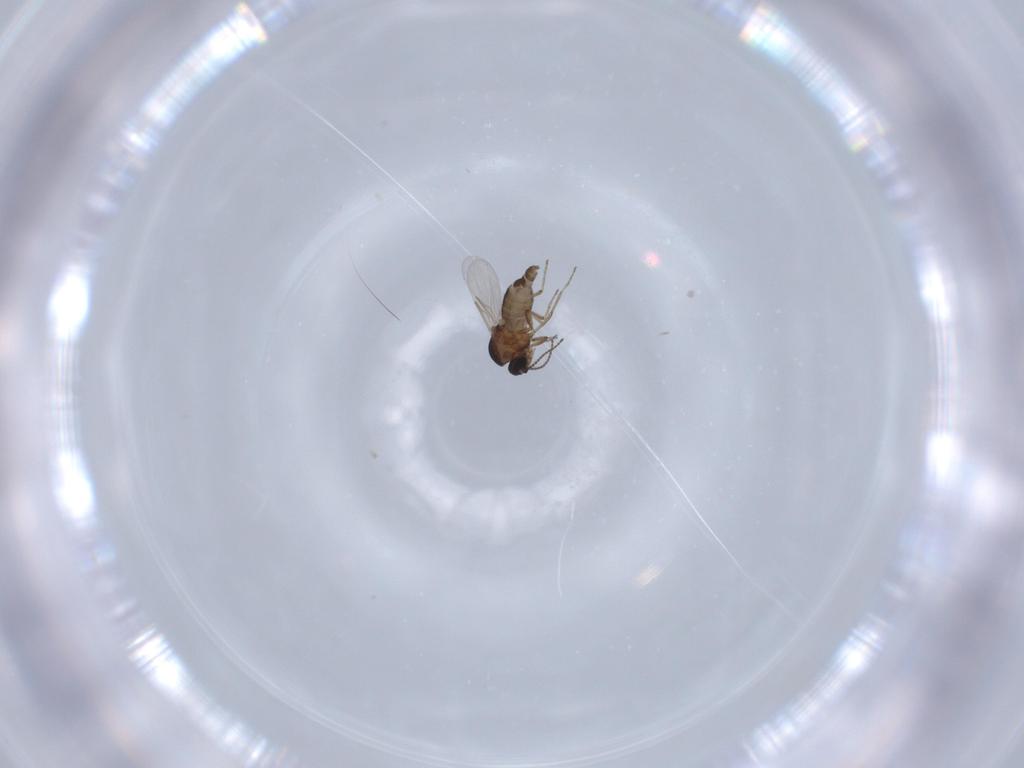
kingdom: Animalia
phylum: Arthropoda
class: Insecta
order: Diptera
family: Ceratopogonidae
